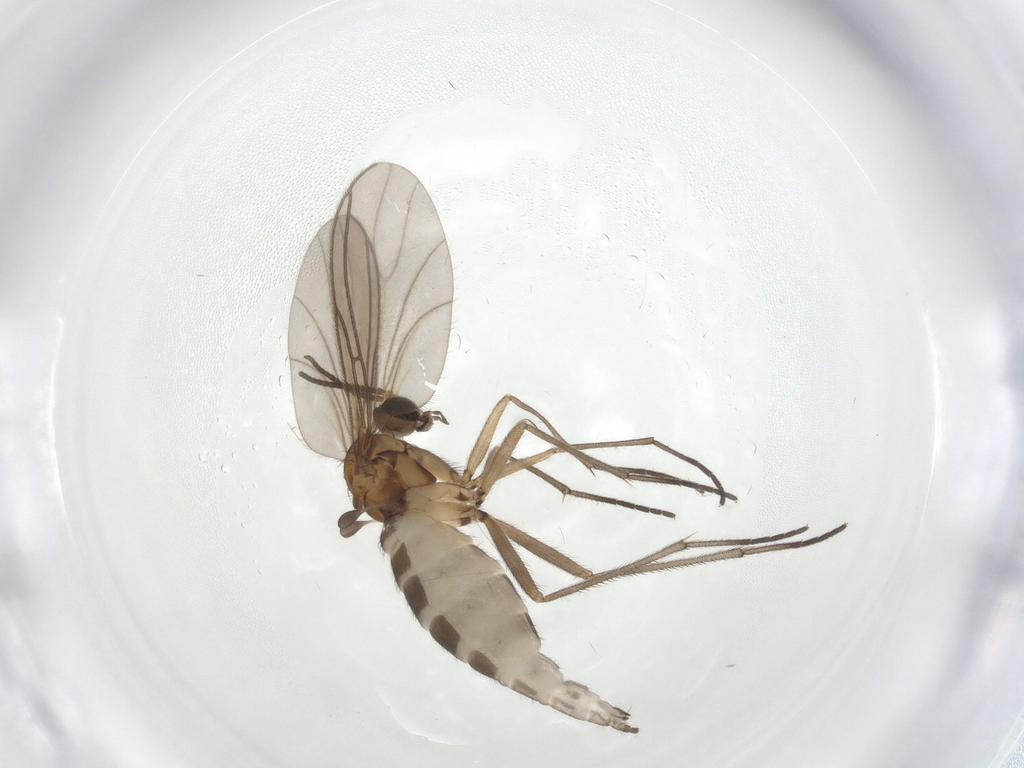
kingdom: Animalia
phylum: Arthropoda
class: Insecta
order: Diptera
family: Sciaridae
